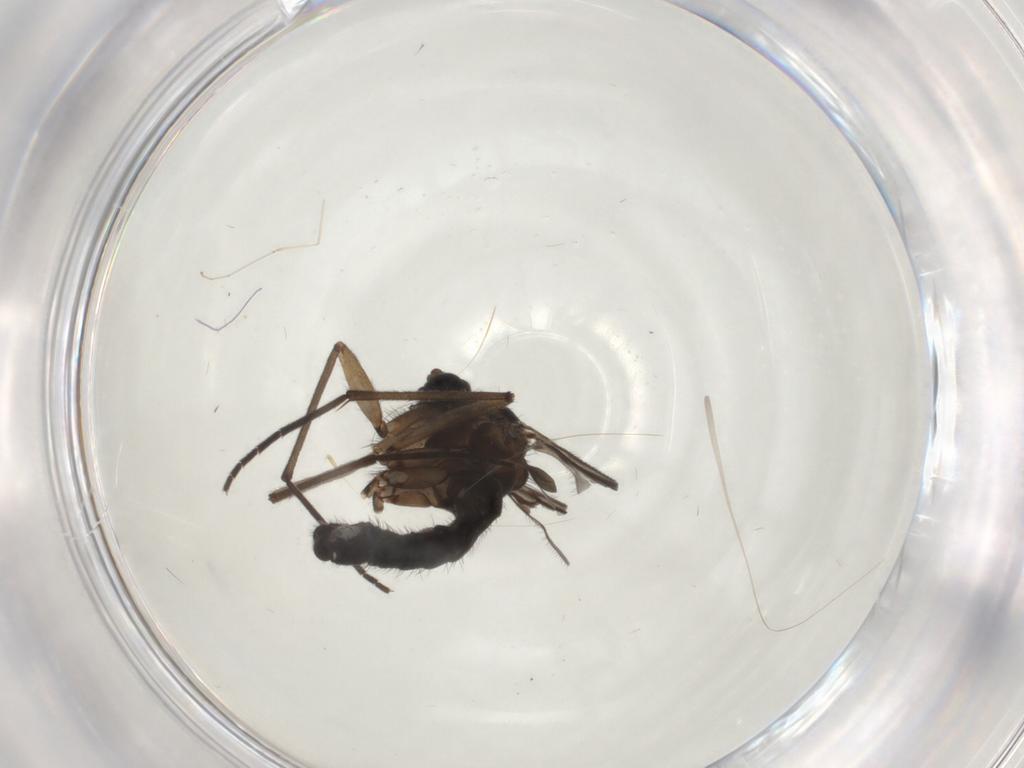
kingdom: Animalia
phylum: Arthropoda
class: Insecta
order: Diptera
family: Sciaridae
